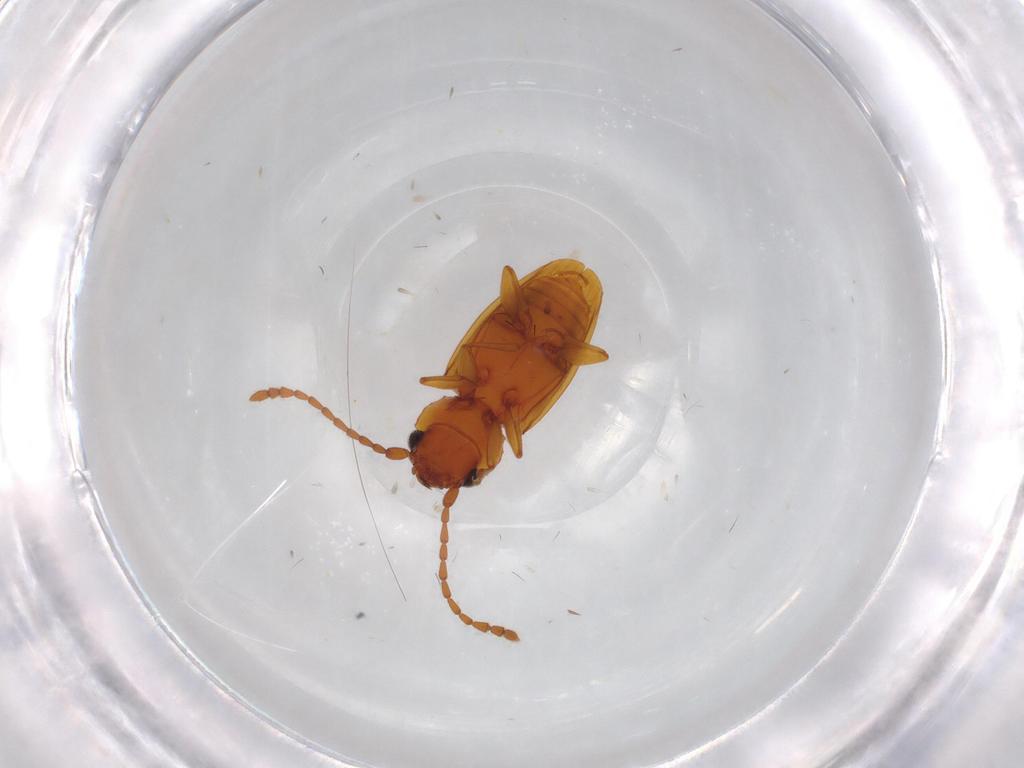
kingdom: Animalia
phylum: Arthropoda
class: Insecta
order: Coleoptera
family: Laemophloeidae
